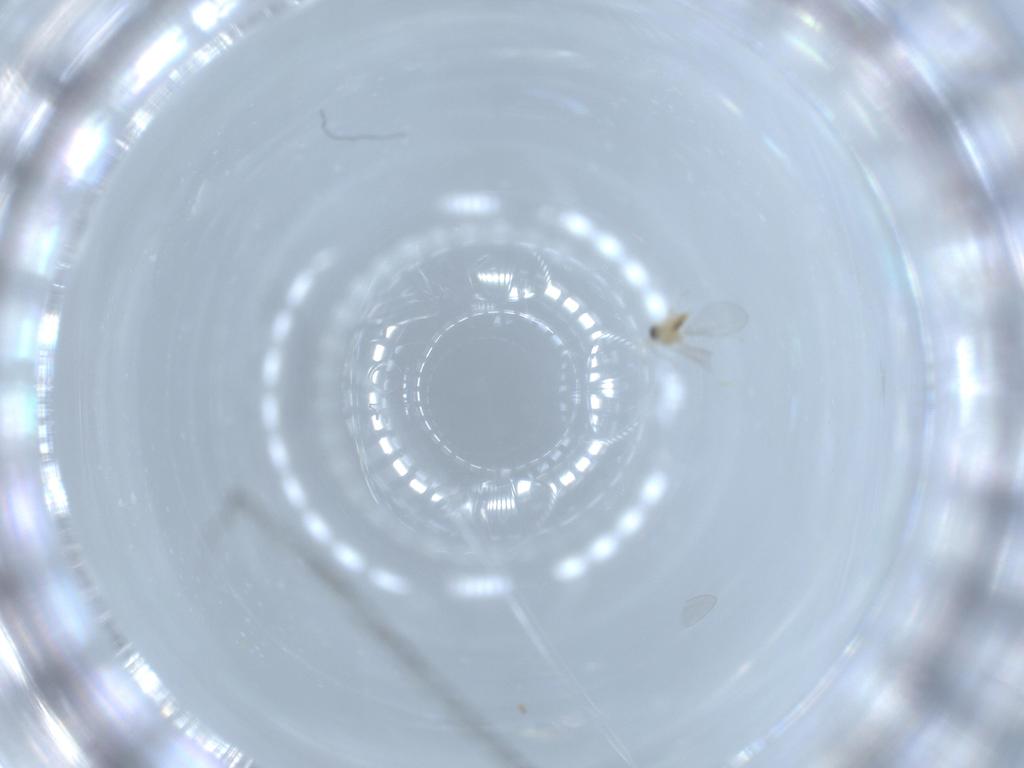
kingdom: Animalia
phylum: Arthropoda
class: Insecta
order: Diptera
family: Cecidomyiidae
